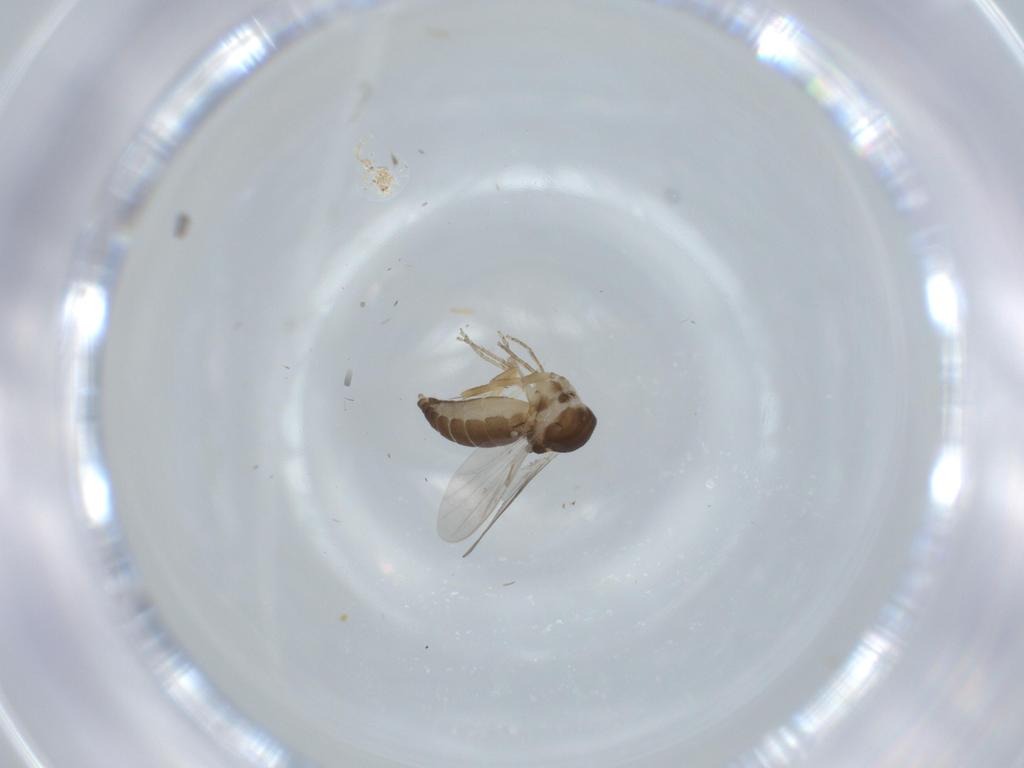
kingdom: Animalia
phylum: Arthropoda
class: Insecta
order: Diptera
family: Ceratopogonidae
